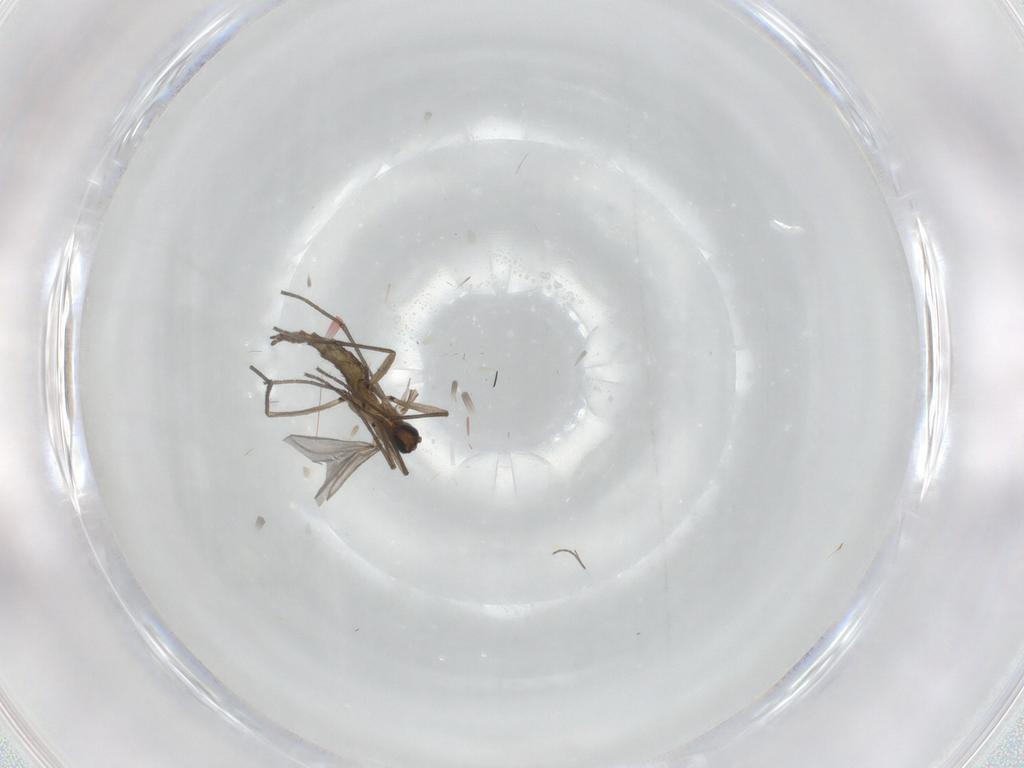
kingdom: Animalia
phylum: Arthropoda
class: Insecta
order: Diptera
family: Sciaridae
